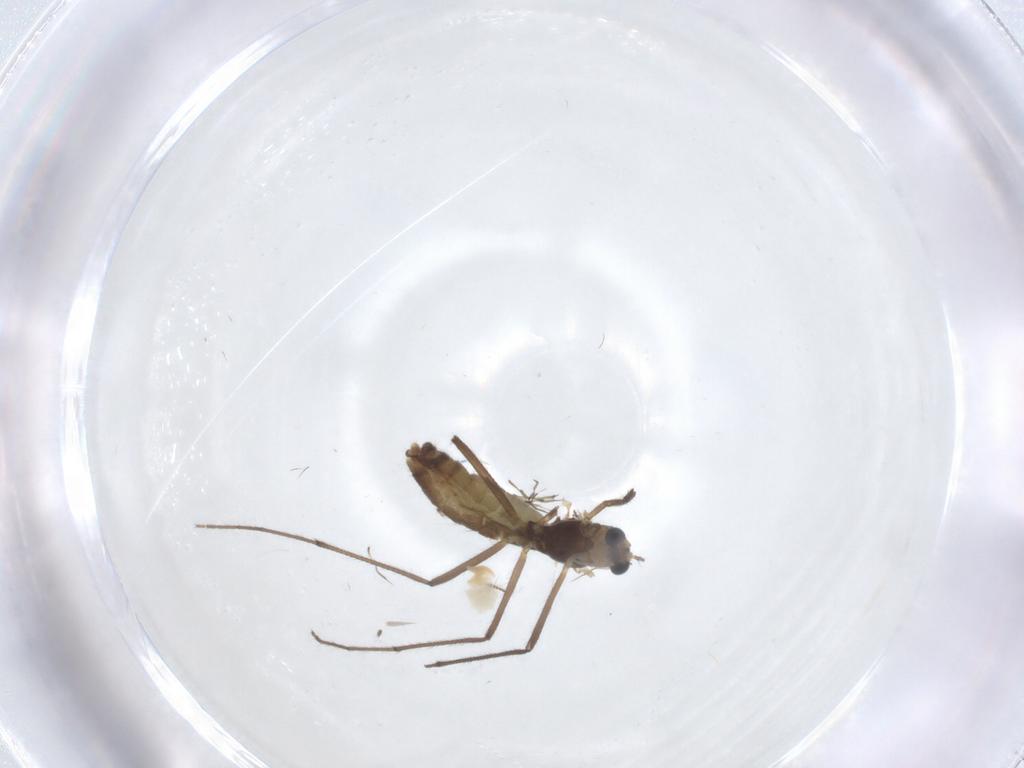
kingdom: Animalia
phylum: Arthropoda
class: Insecta
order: Diptera
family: Chironomidae
